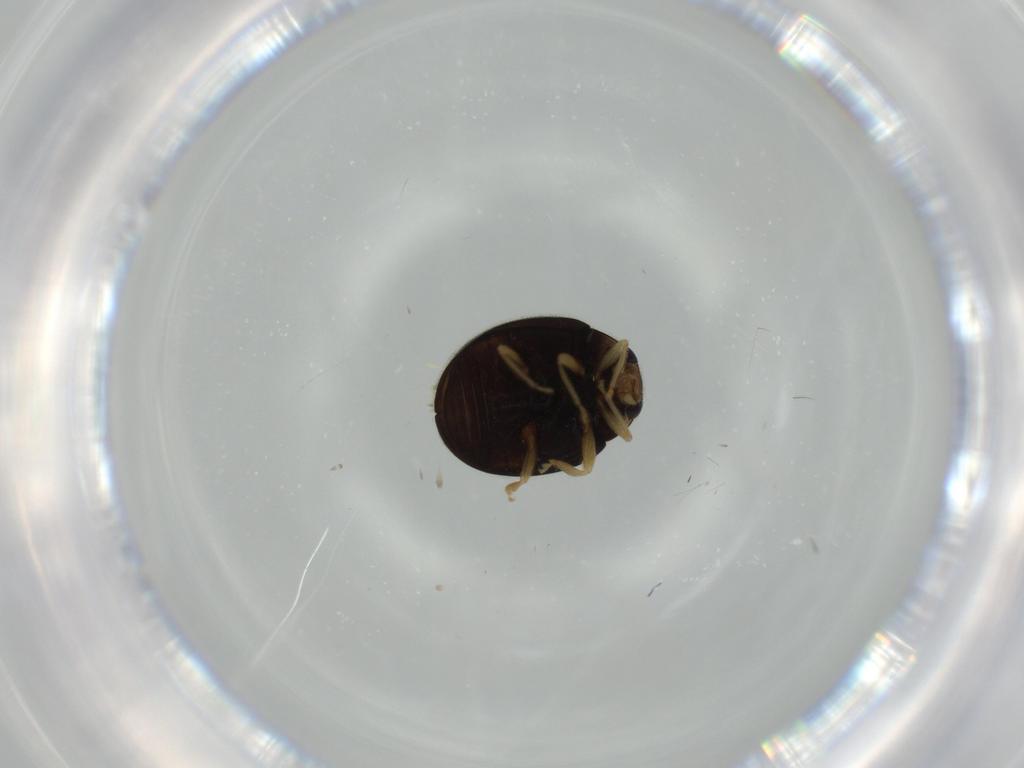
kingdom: Animalia
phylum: Arthropoda
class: Insecta
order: Coleoptera
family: Coccinellidae
